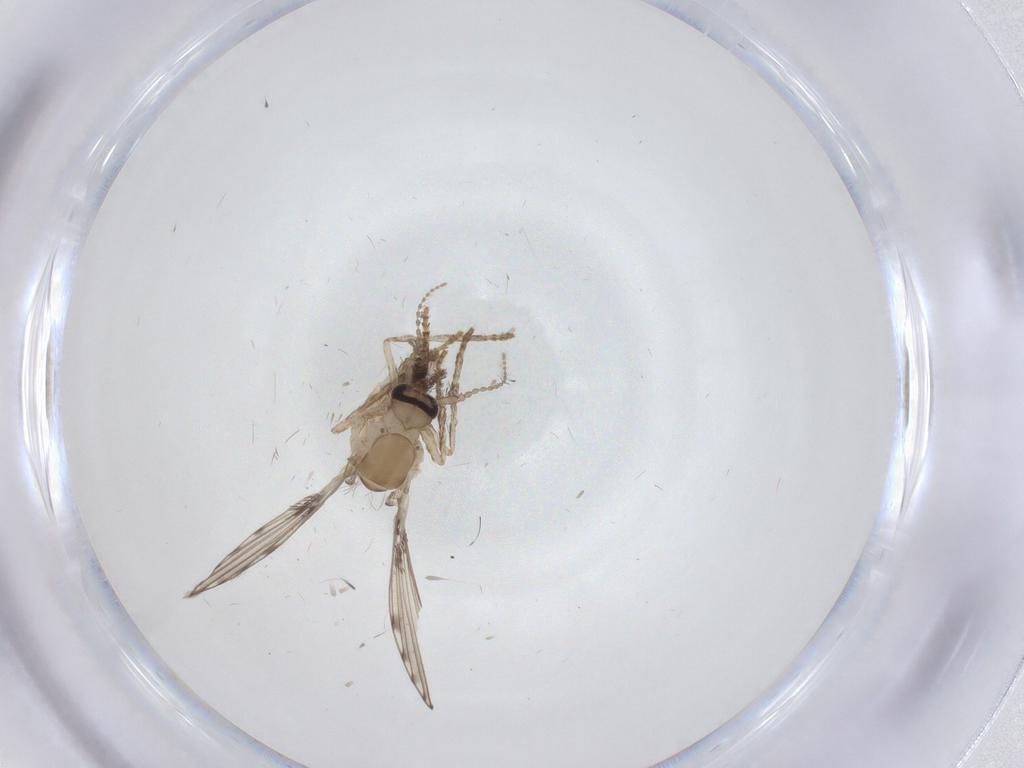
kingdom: Animalia
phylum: Arthropoda
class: Insecta
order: Diptera
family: Psychodidae
